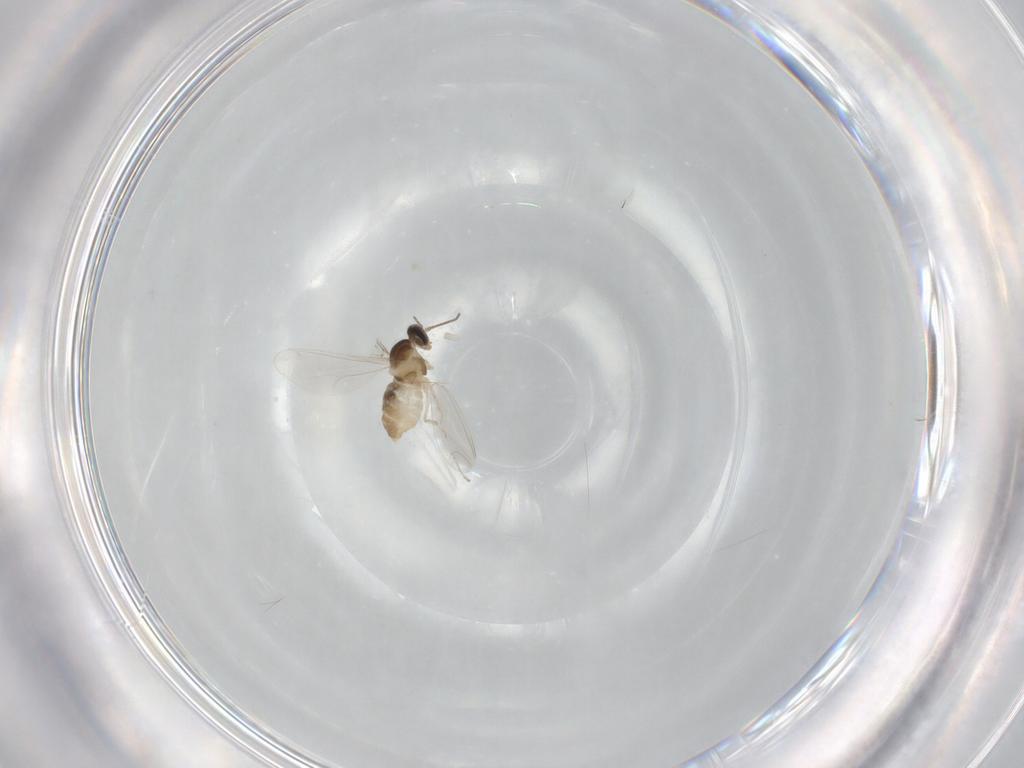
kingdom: Animalia
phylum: Arthropoda
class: Insecta
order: Diptera
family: Cecidomyiidae
